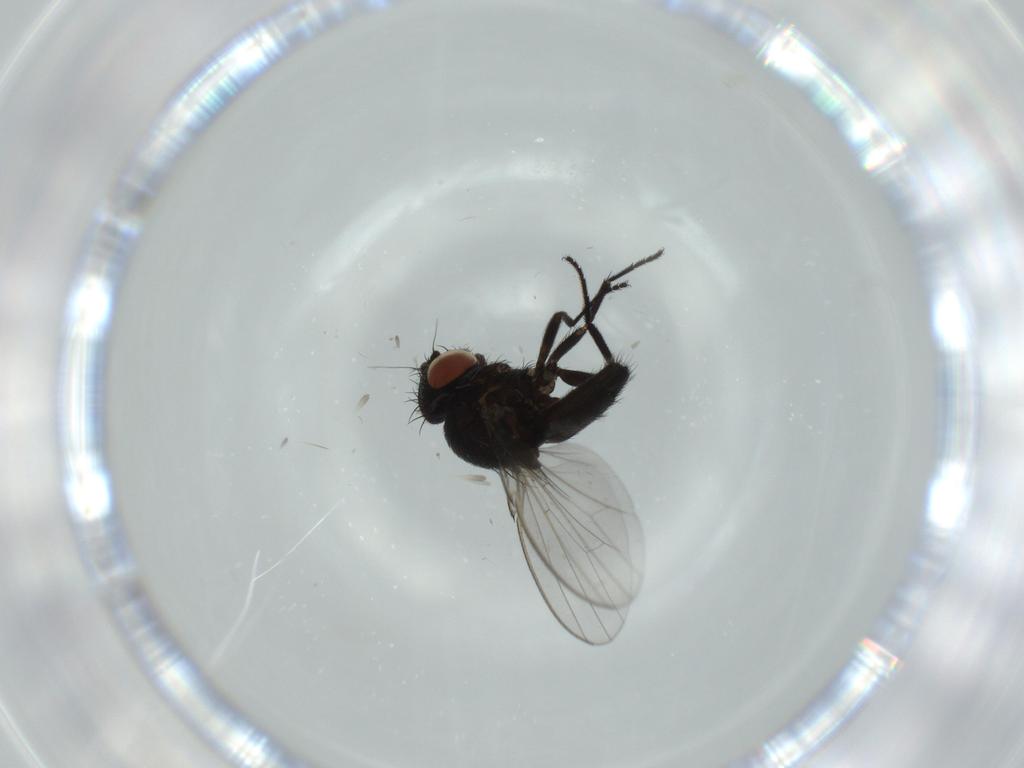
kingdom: Animalia
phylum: Arthropoda
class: Insecta
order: Diptera
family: Milichiidae
